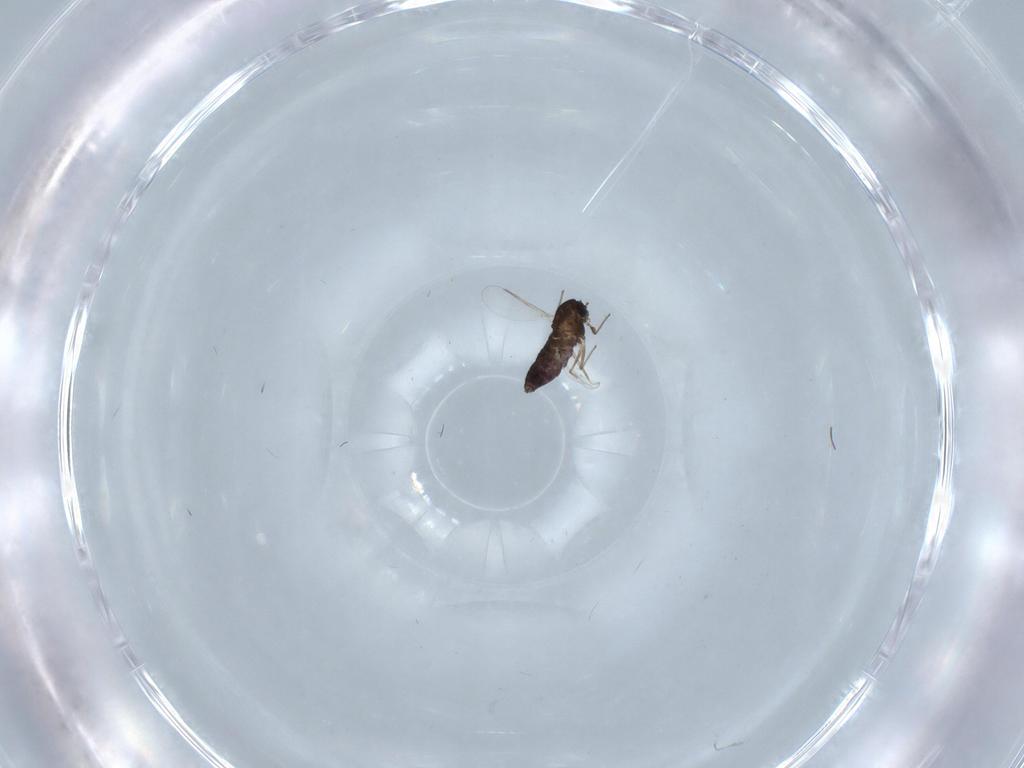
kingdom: Animalia
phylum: Arthropoda
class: Insecta
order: Diptera
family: Chironomidae
